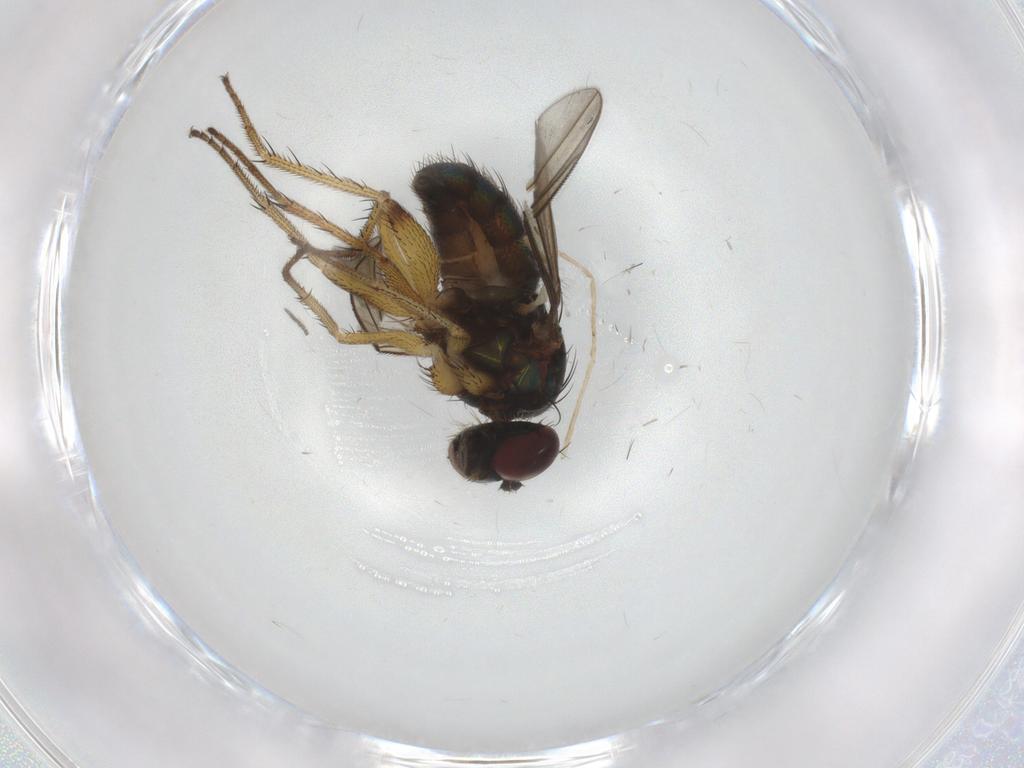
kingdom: Animalia
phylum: Arthropoda
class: Insecta
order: Diptera
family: Dolichopodidae
